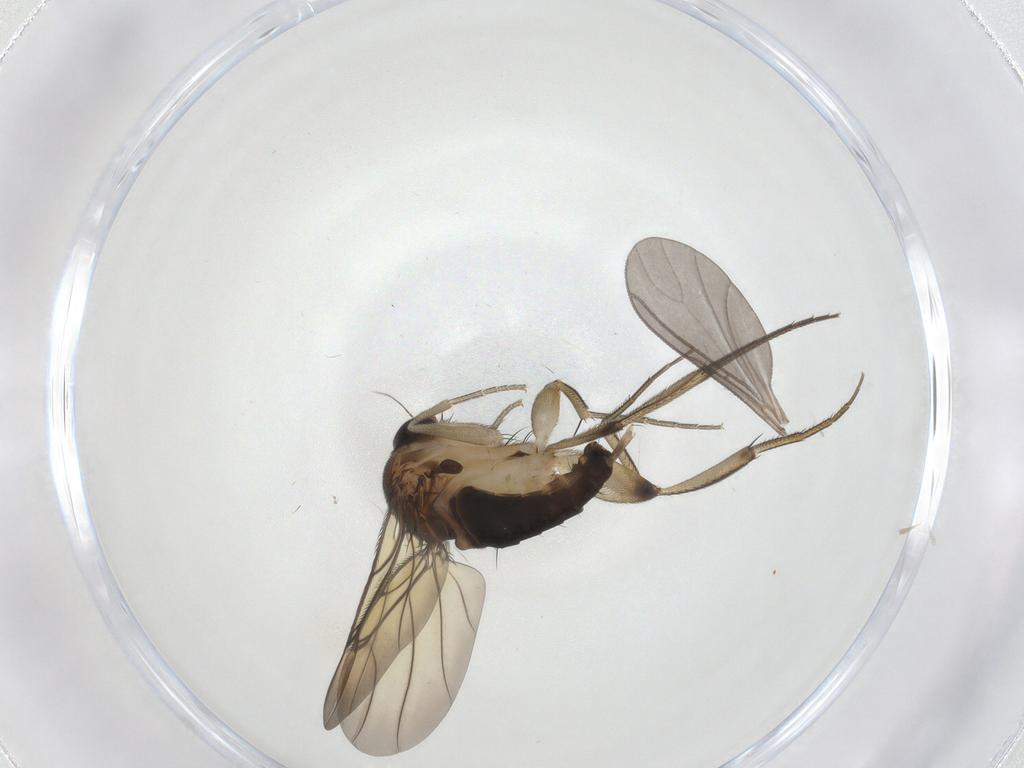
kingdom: Animalia
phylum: Arthropoda
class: Insecta
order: Diptera
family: Phoridae
